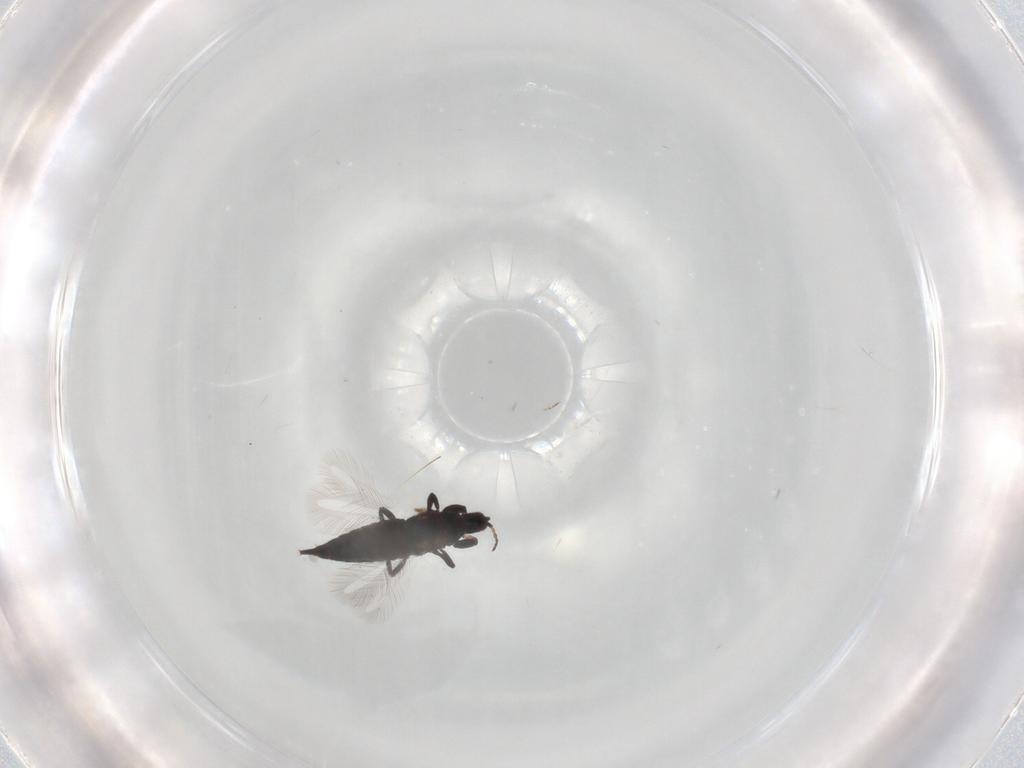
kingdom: Animalia
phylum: Arthropoda
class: Insecta
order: Thysanoptera
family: Phlaeothripidae
